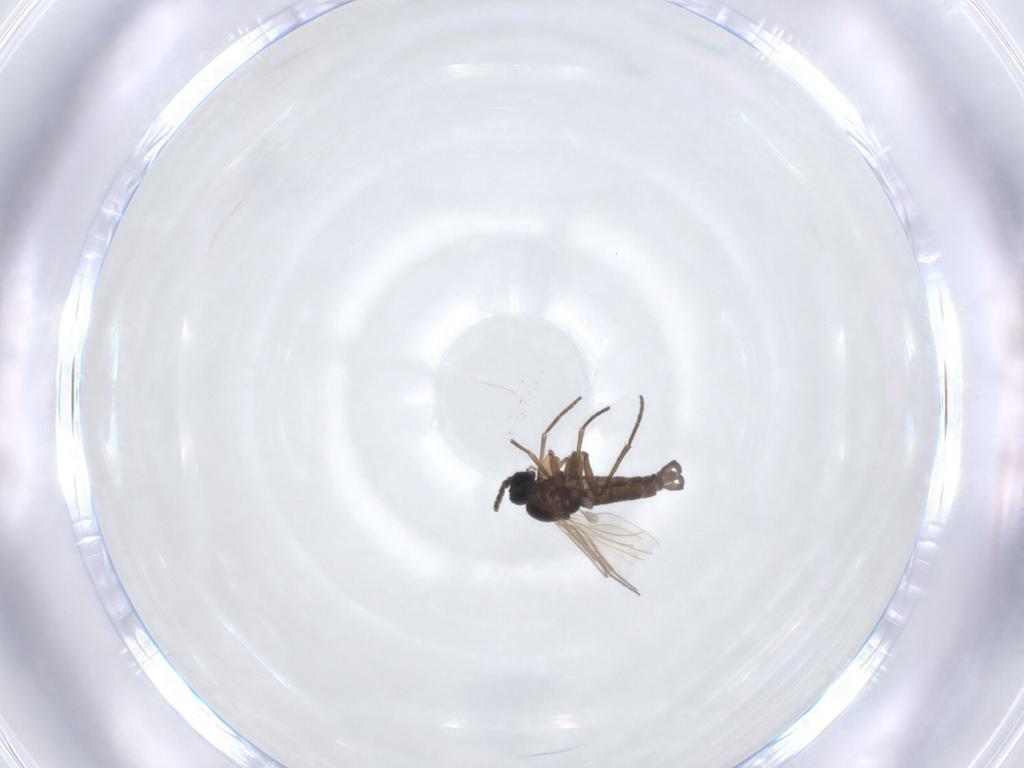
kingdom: Animalia
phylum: Arthropoda
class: Insecta
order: Diptera
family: Sciaridae
